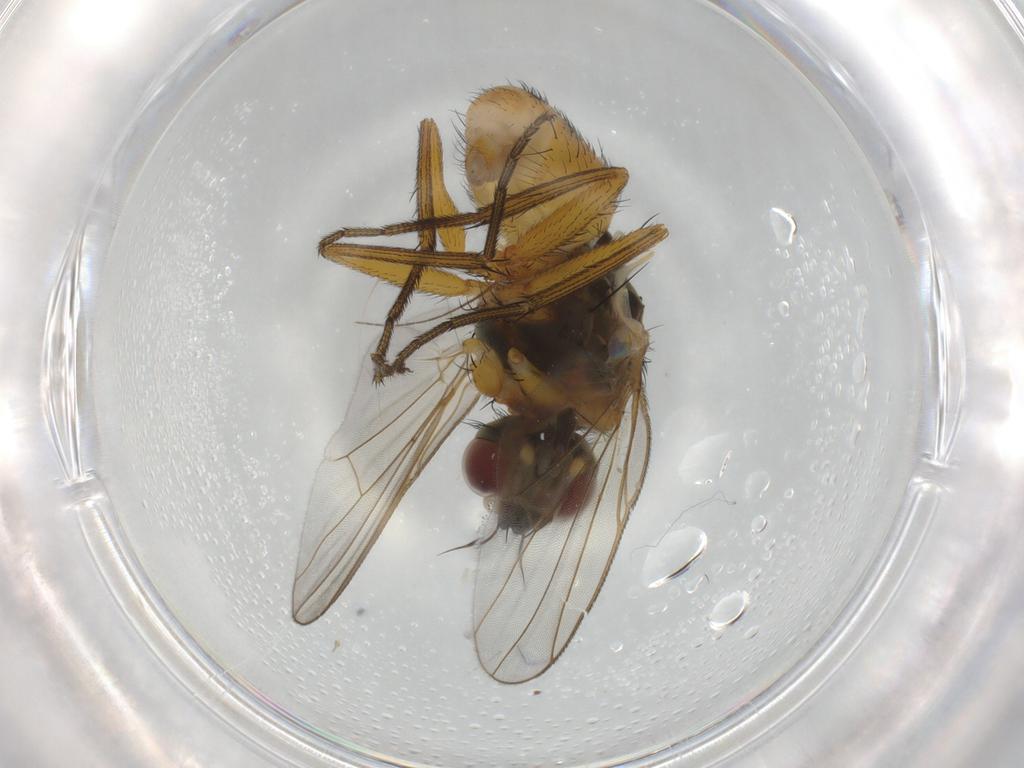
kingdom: Animalia
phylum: Arthropoda
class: Insecta
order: Diptera
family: Muscidae
